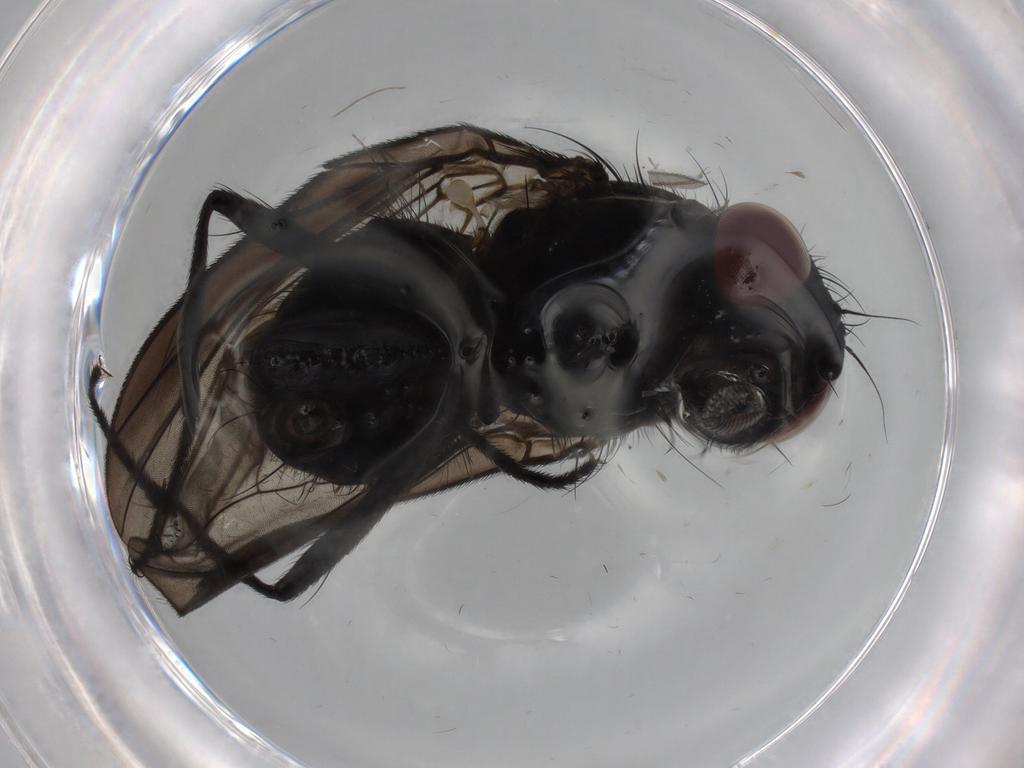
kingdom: Animalia
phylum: Arthropoda
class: Insecta
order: Diptera
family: Fannia
